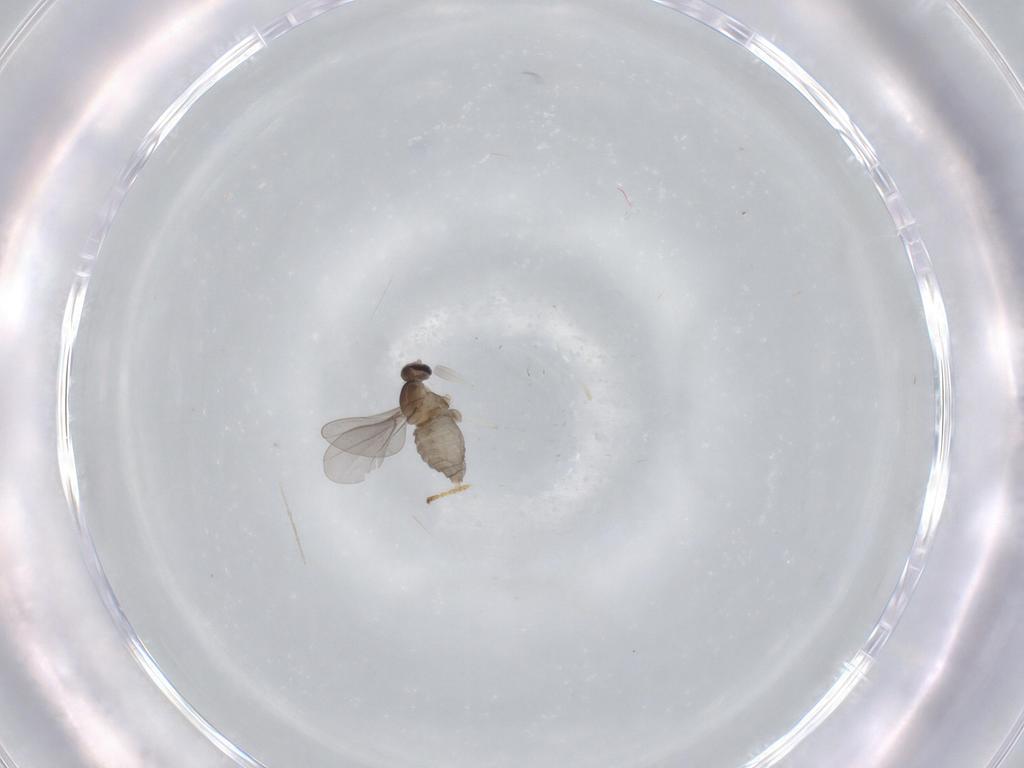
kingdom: Animalia
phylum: Arthropoda
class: Insecta
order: Diptera
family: Cecidomyiidae
